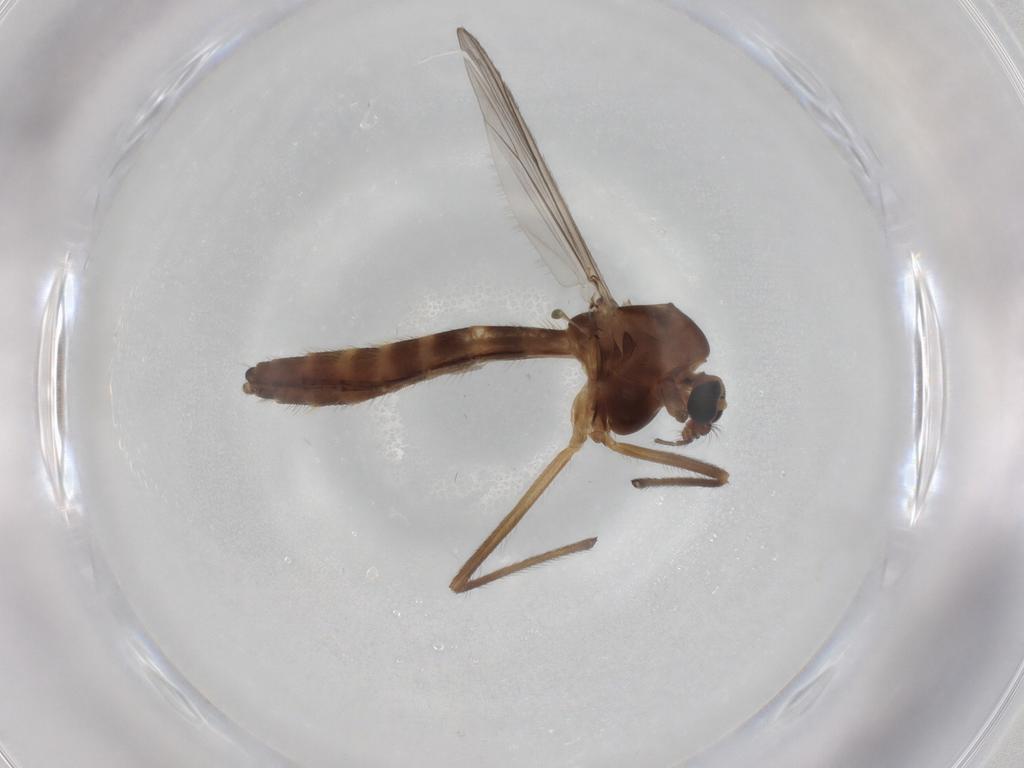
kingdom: Animalia
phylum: Arthropoda
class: Insecta
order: Diptera
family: Chironomidae
